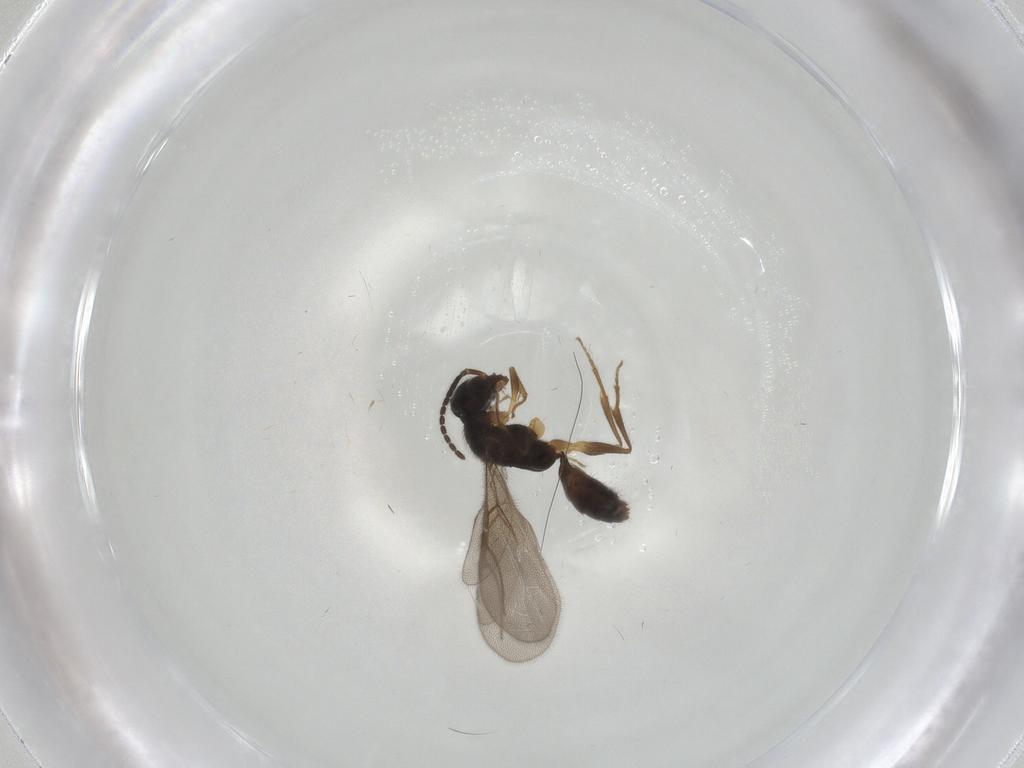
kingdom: Animalia
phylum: Arthropoda
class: Insecta
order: Hymenoptera
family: Bethylidae
